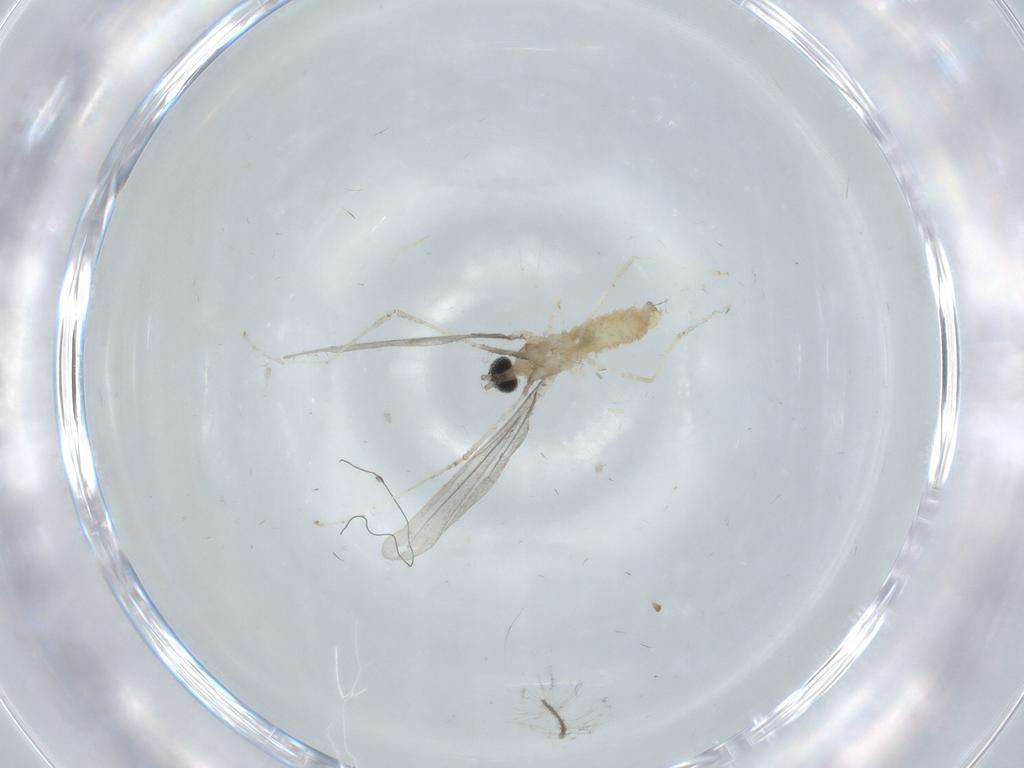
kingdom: Animalia
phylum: Arthropoda
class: Insecta
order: Diptera
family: Cecidomyiidae
